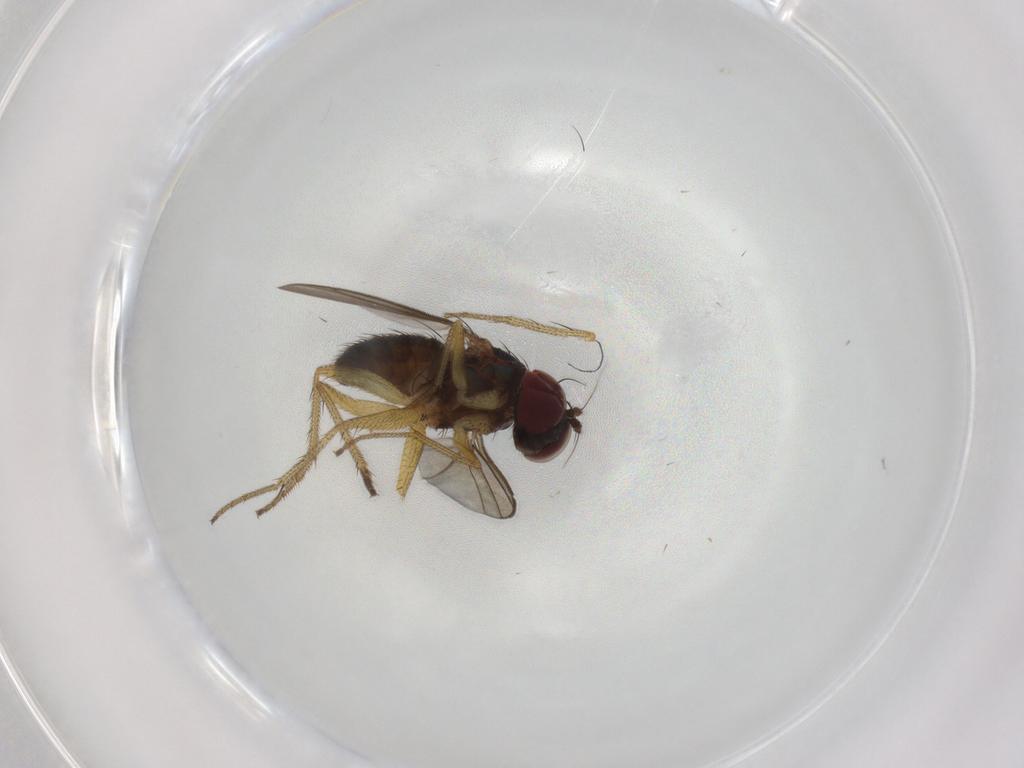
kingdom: Animalia
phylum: Arthropoda
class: Insecta
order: Diptera
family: Dolichopodidae
